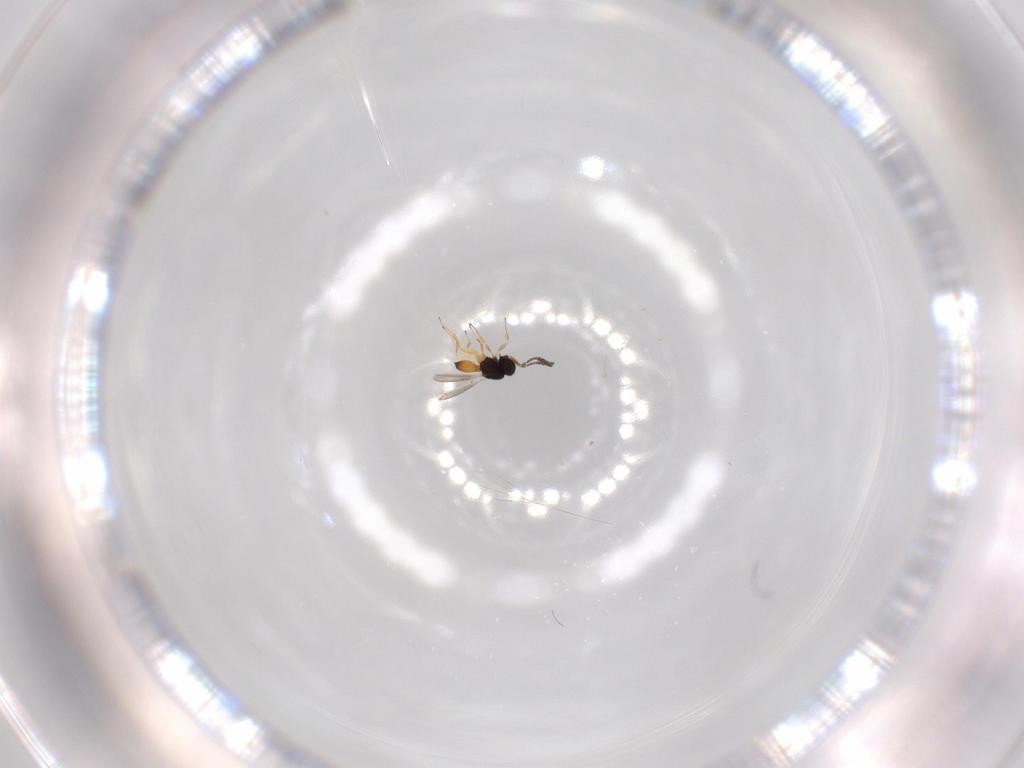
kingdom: Animalia
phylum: Arthropoda
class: Insecta
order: Hymenoptera
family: Scelionidae
